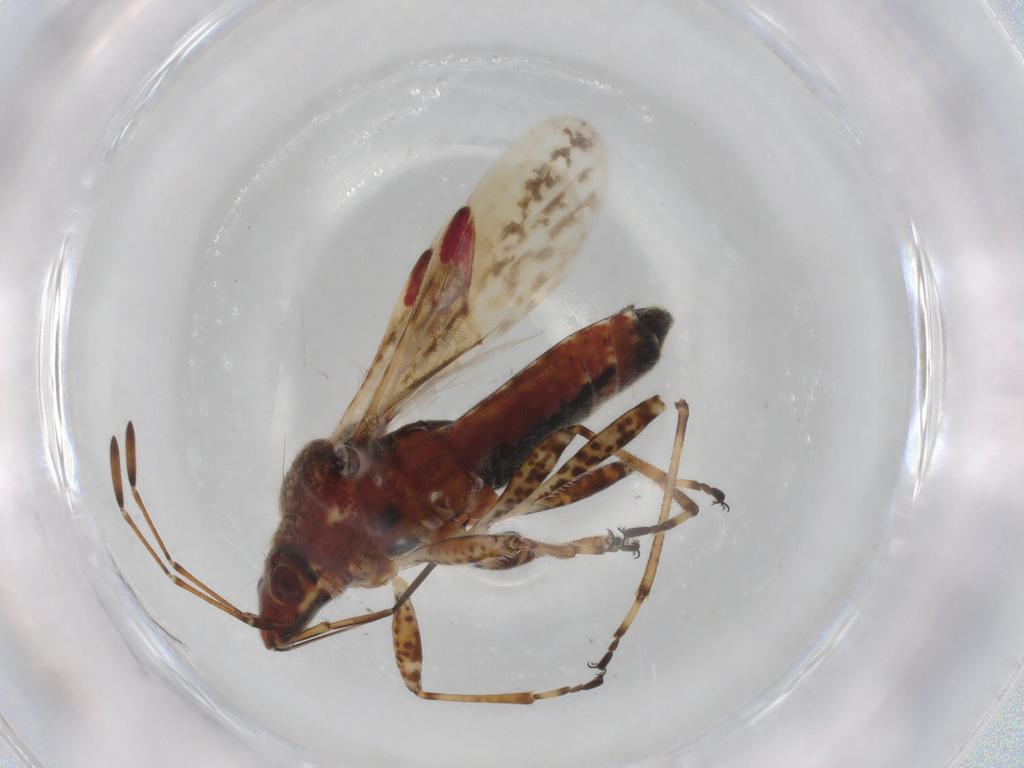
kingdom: Animalia
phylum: Arthropoda
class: Insecta
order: Hemiptera
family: Lygaeidae
